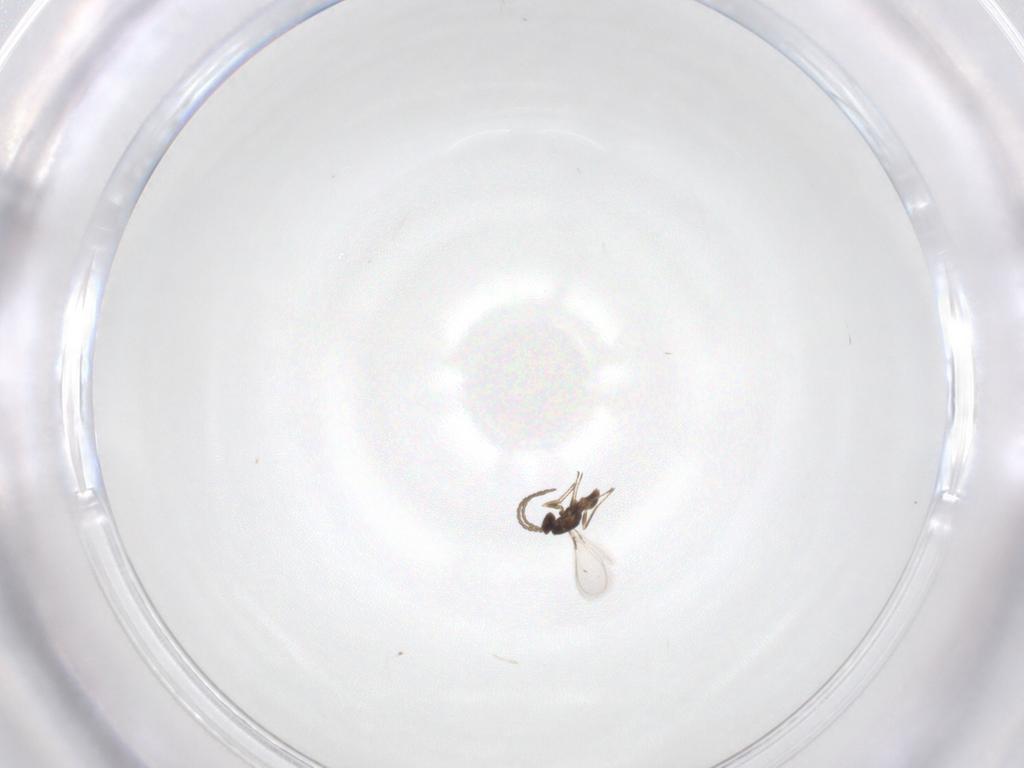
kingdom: Animalia
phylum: Arthropoda
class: Insecta
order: Hymenoptera
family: Mymaridae
